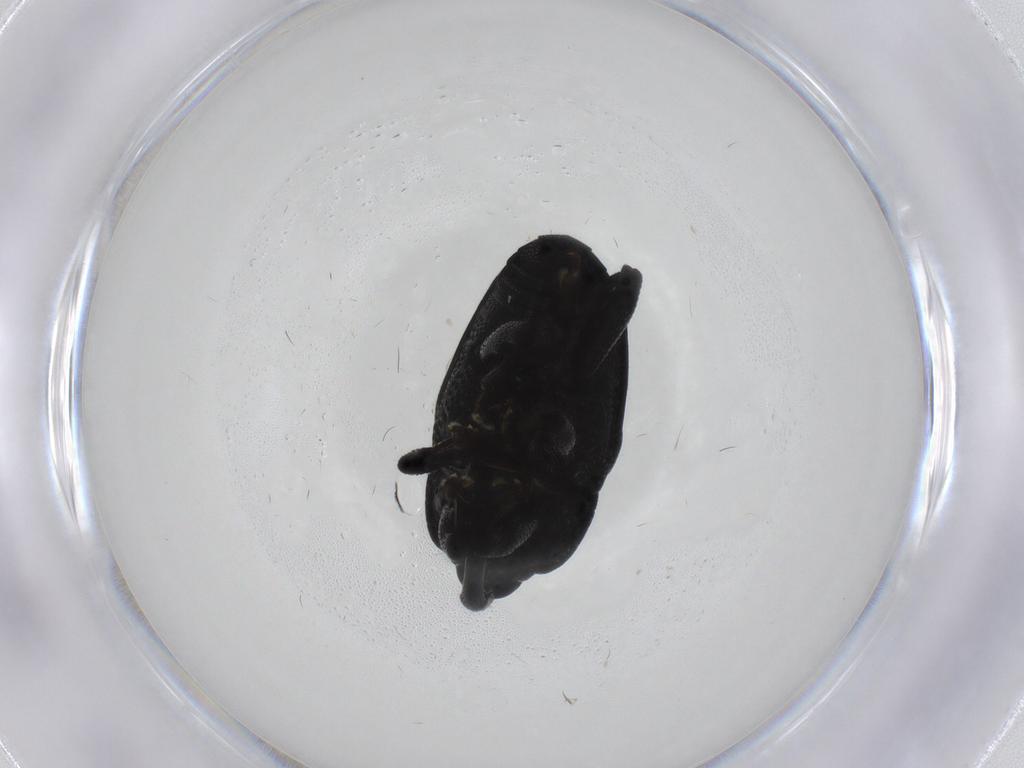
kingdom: Animalia
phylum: Arthropoda
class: Insecta
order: Coleoptera
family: Curculionidae
